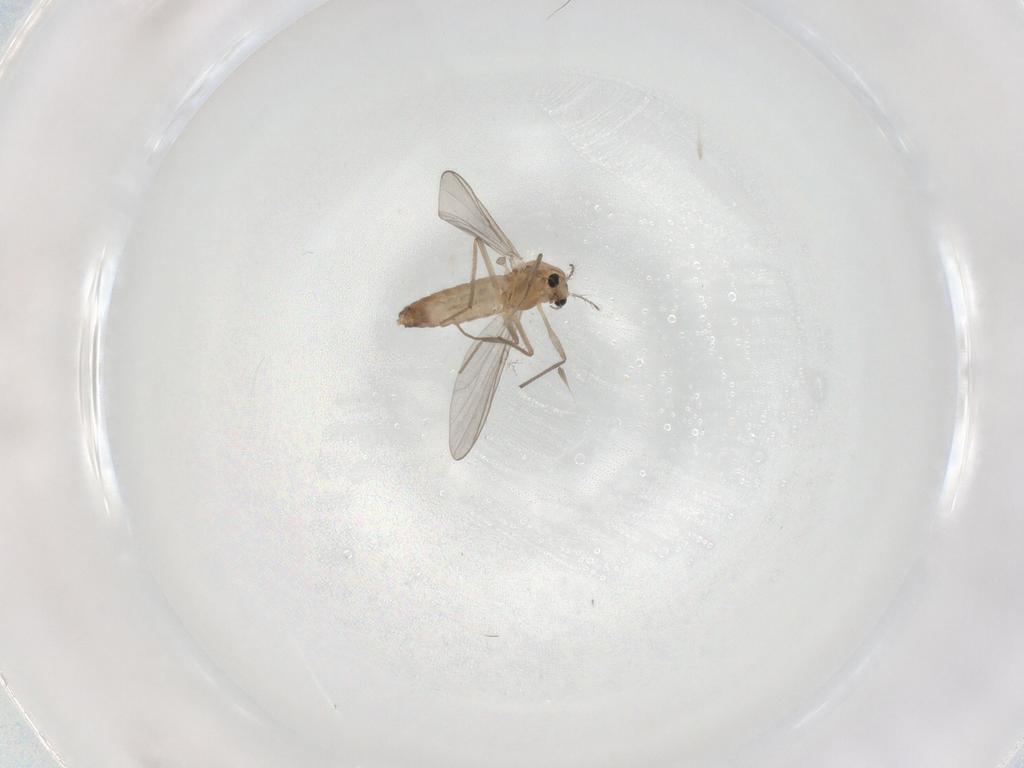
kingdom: Animalia
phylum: Arthropoda
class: Insecta
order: Diptera
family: Chironomidae
